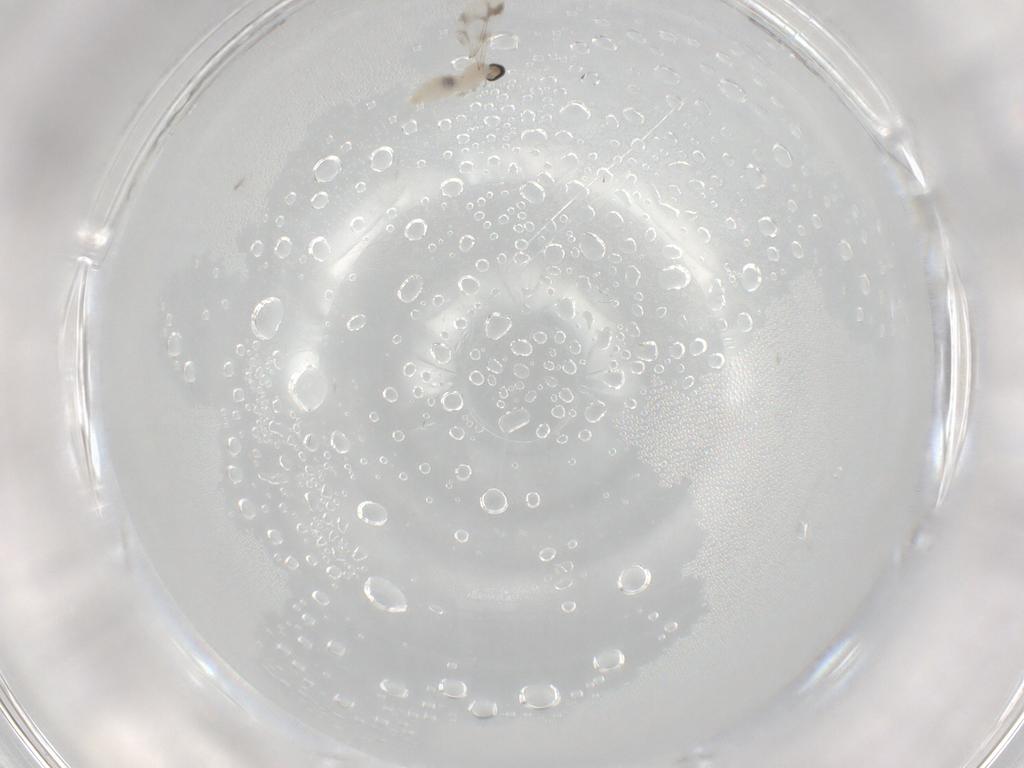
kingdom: Animalia
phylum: Arthropoda
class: Insecta
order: Diptera
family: Cecidomyiidae
